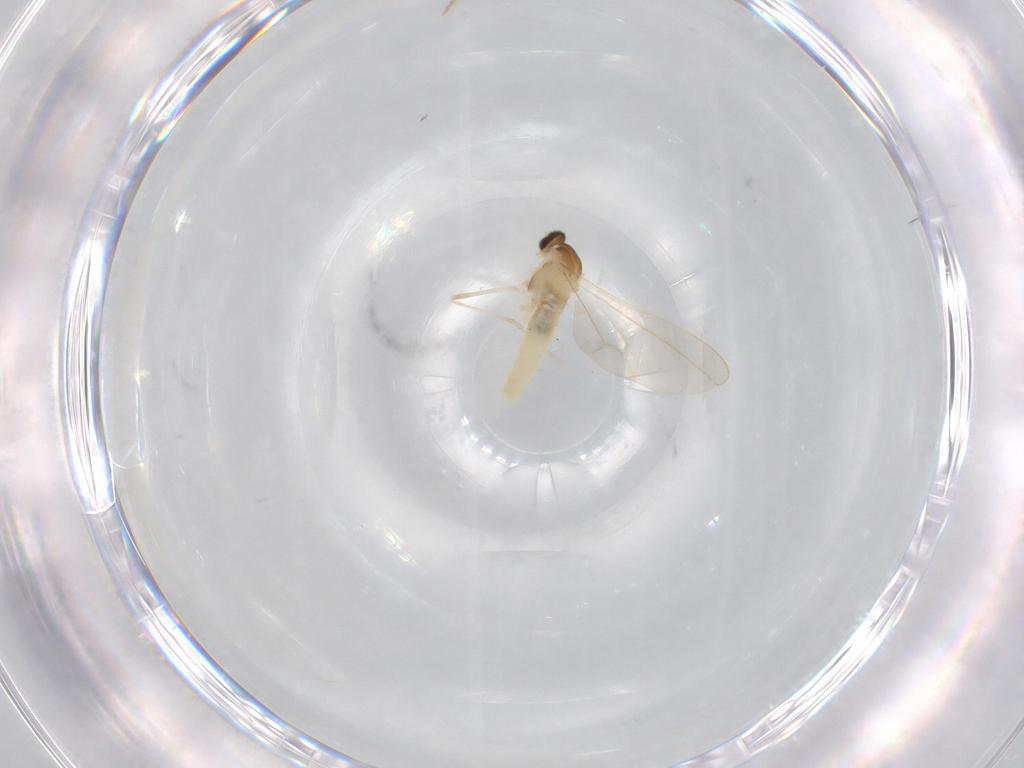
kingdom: Animalia
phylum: Arthropoda
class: Insecta
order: Diptera
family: Cecidomyiidae
